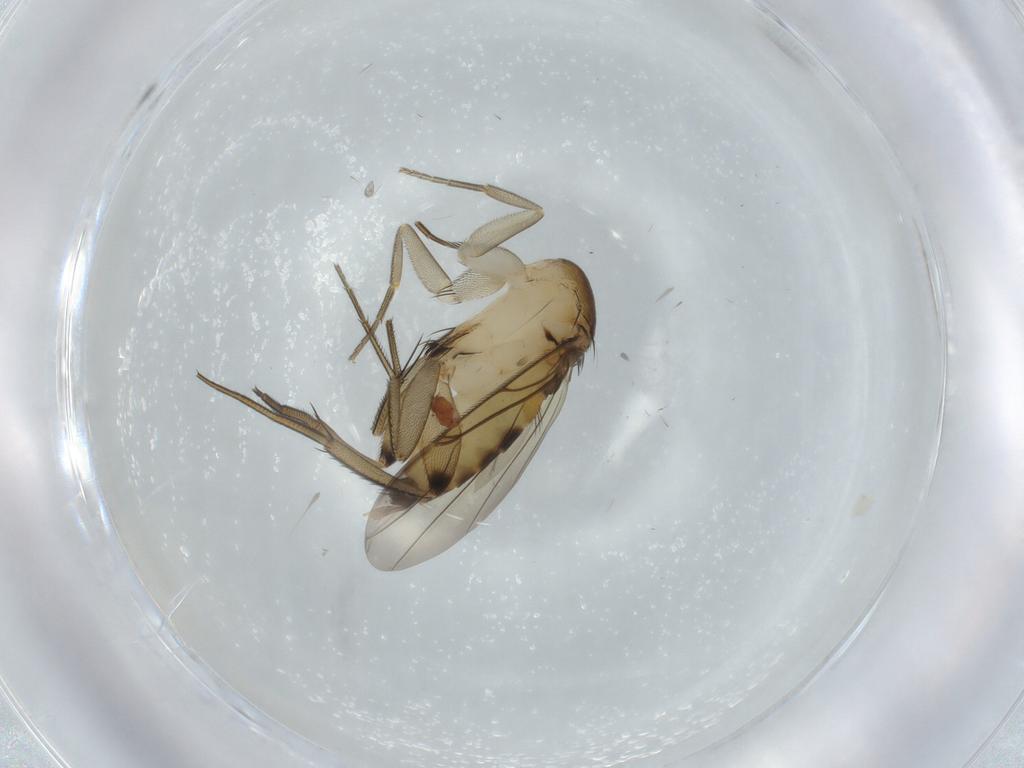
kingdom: Animalia
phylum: Arthropoda
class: Insecta
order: Diptera
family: Phoridae
